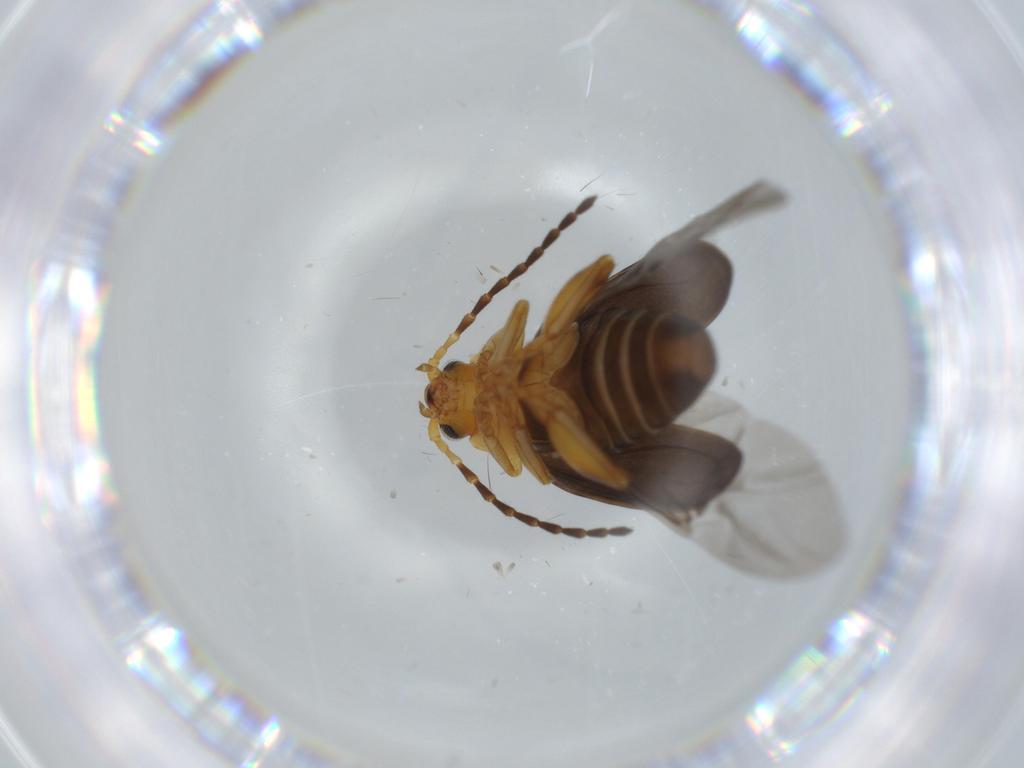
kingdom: Animalia
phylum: Arthropoda
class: Insecta
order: Coleoptera
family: Chrysomelidae
